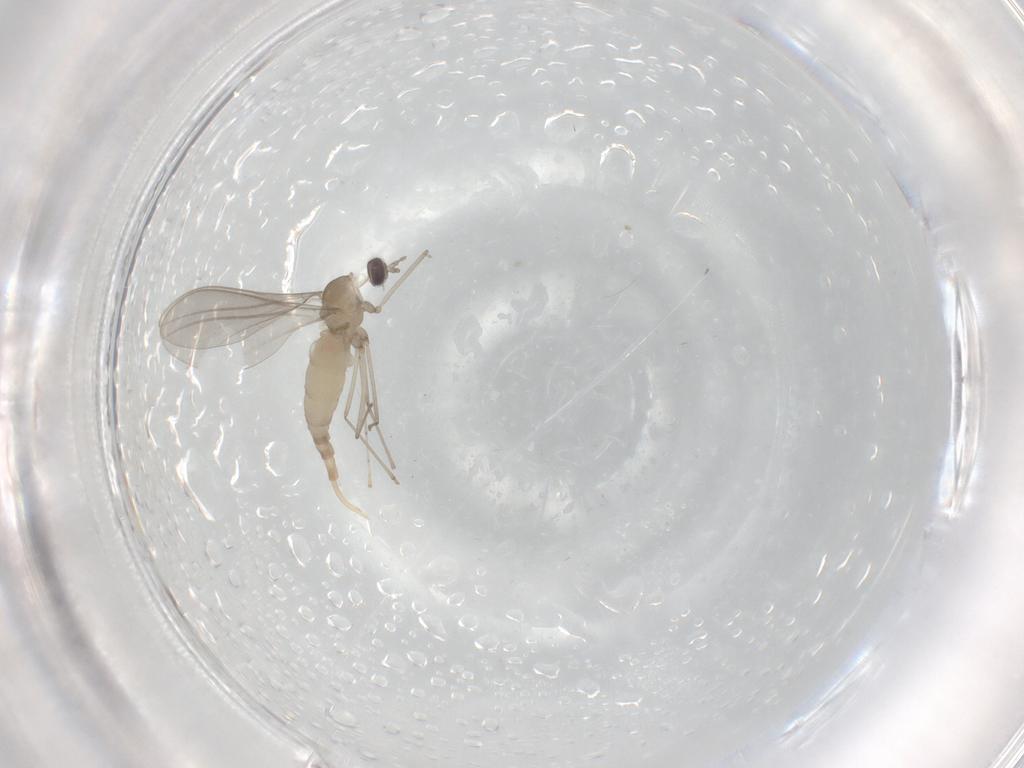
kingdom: Animalia
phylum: Arthropoda
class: Insecta
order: Diptera
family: Cecidomyiidae
